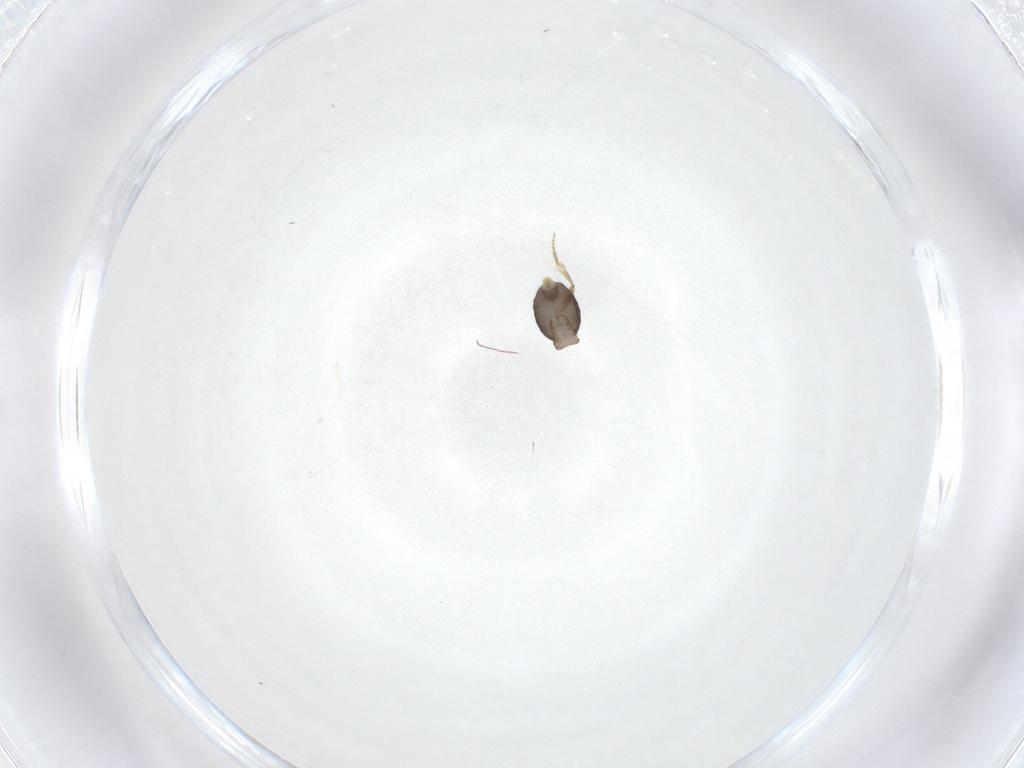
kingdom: Animalia
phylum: Arthropoda
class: Insecta
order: Diptera
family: Phoridae
